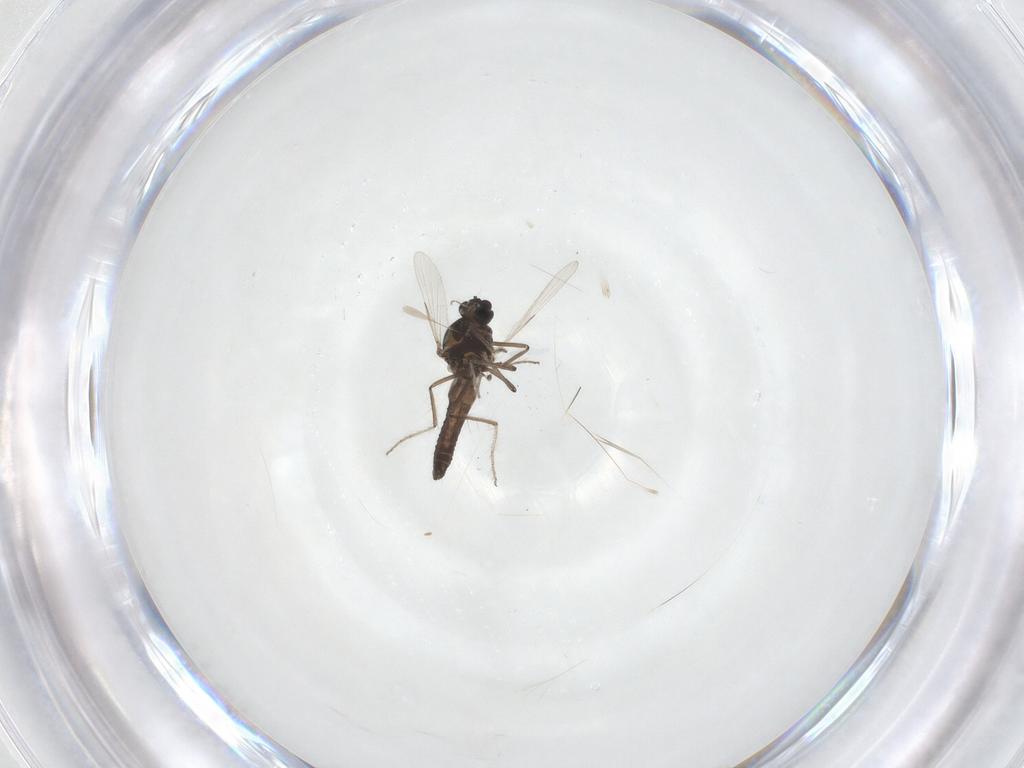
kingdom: Animalia
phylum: Arthropoda
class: Insecta
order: Diptera
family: Ceratopogonidae
